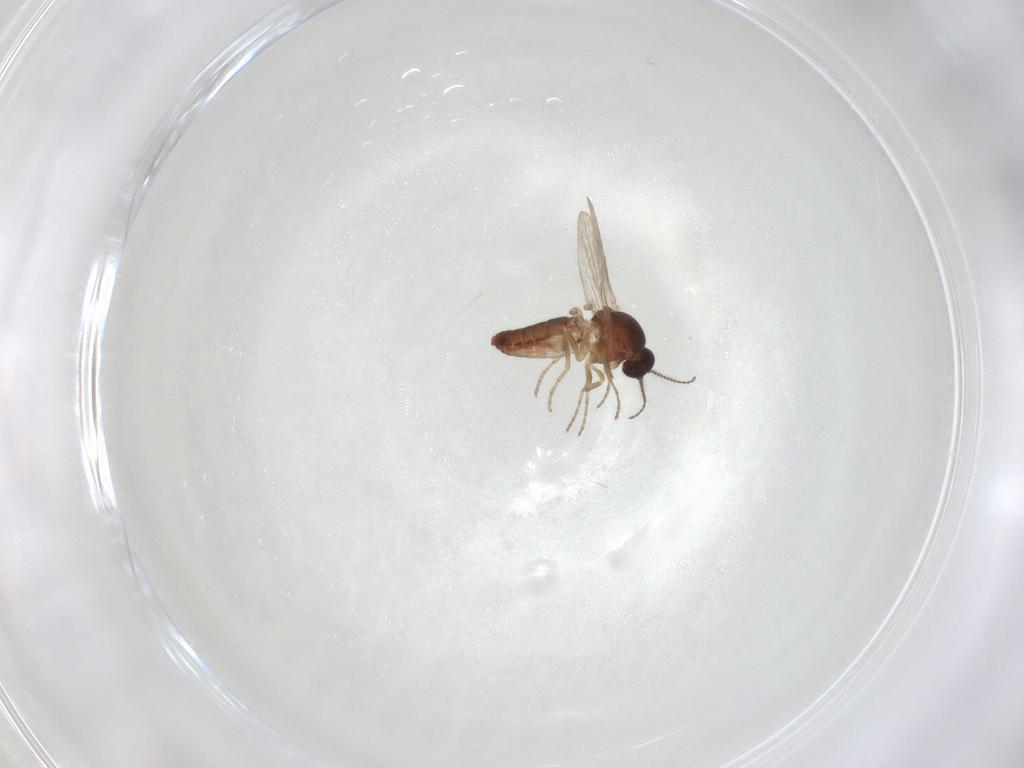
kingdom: Animalia
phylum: Arthropoda
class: Insecta
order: Diptera
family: Ceratopogonidae
